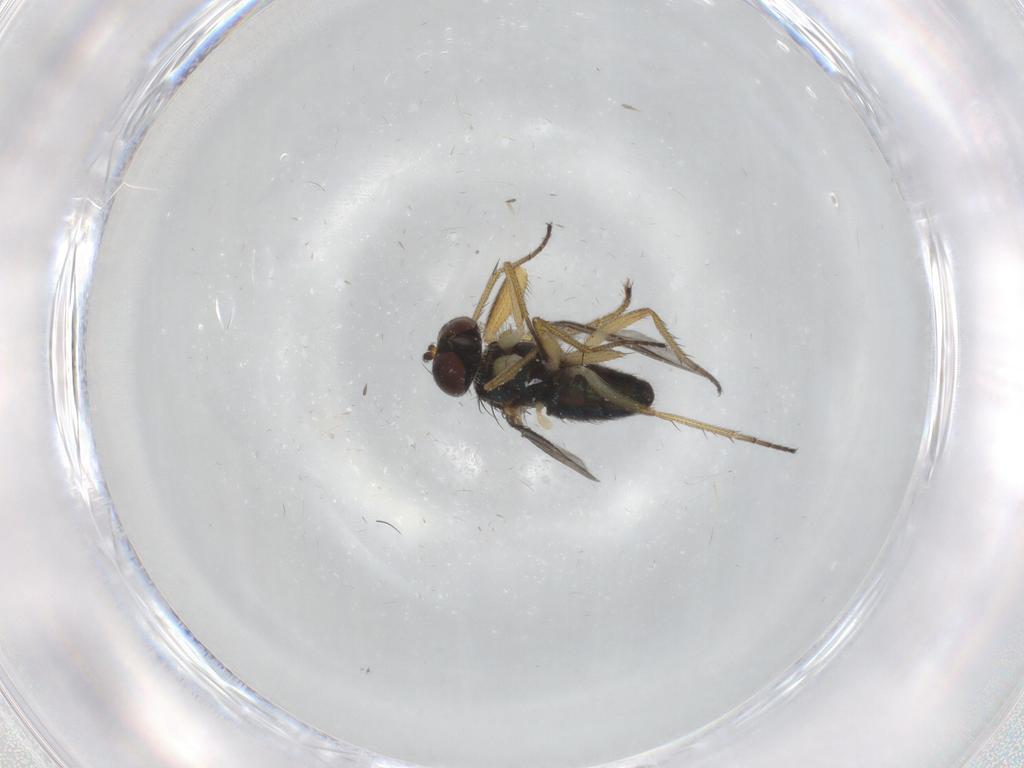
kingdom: Animalia
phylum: Arthropoda
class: Insecta
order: Diptera
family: Dolichopodidae
